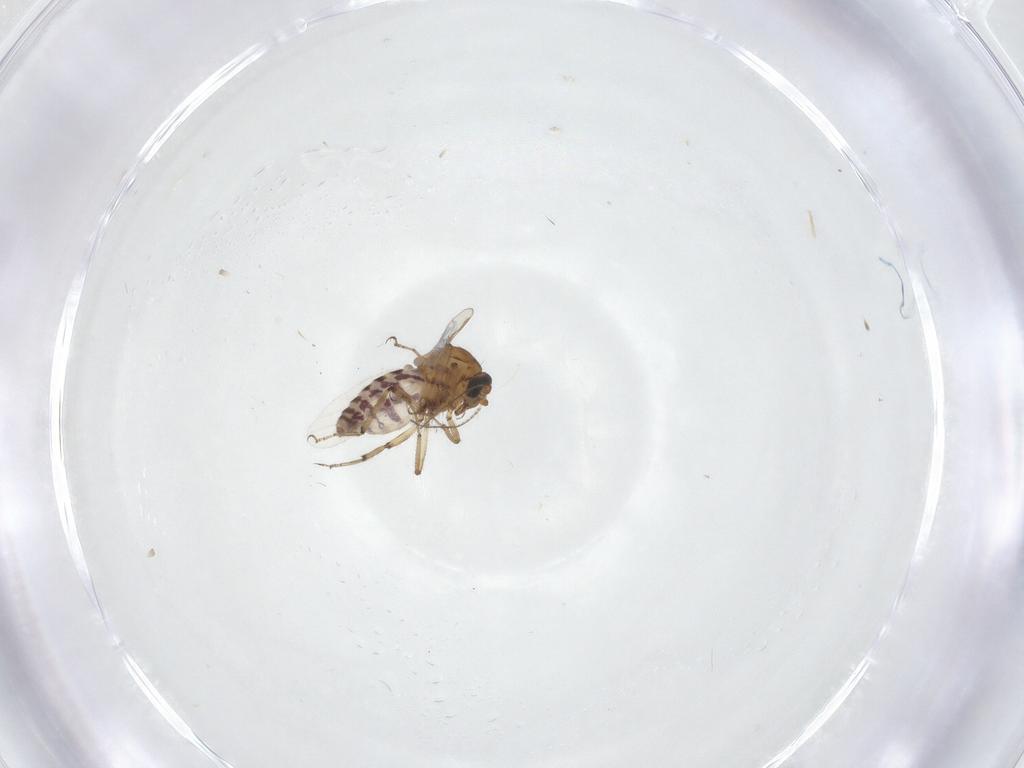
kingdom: Animalia
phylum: Arthropoda
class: Insecta
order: Diptera
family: Ceratopogonidae
